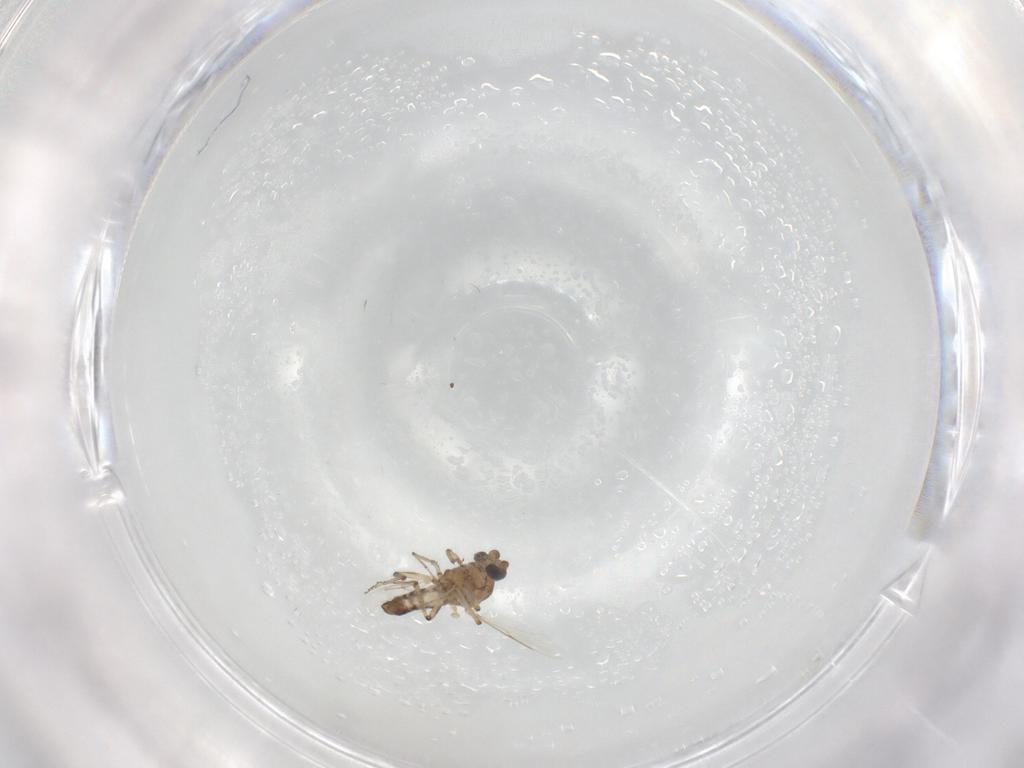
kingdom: Animalia
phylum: Arthropoda
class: Insecta
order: Diptera
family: Ceratopogonidae
